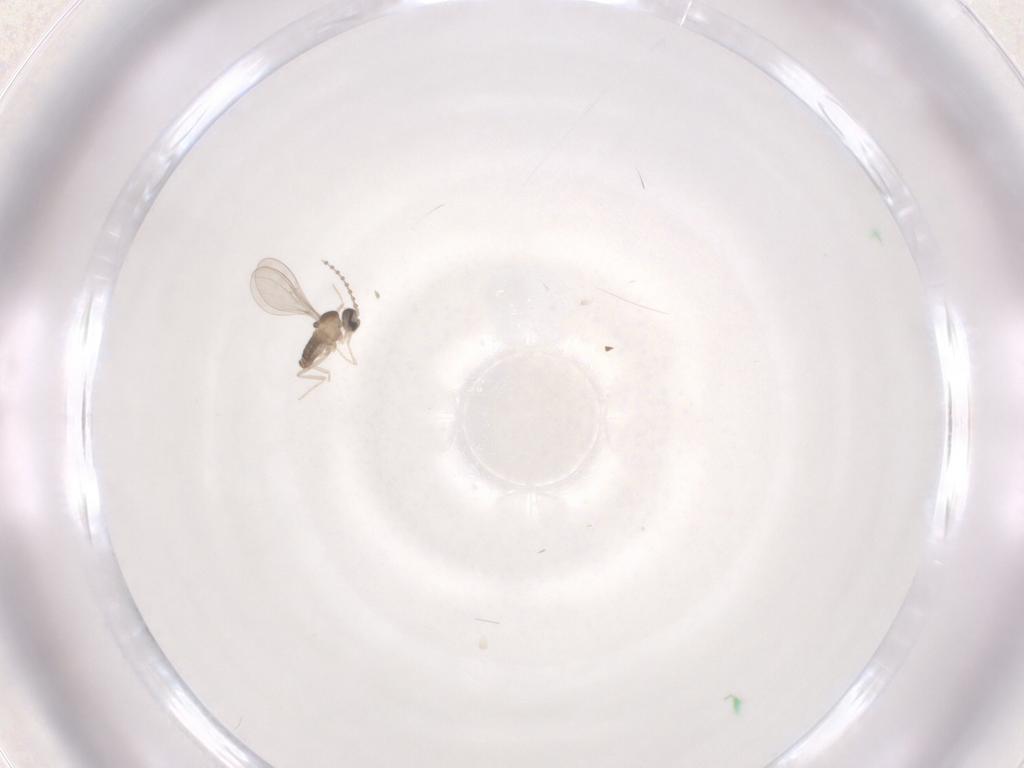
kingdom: Animalia
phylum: Arthropoda
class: Insecta
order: Diptera
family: Cecidomyiidae
